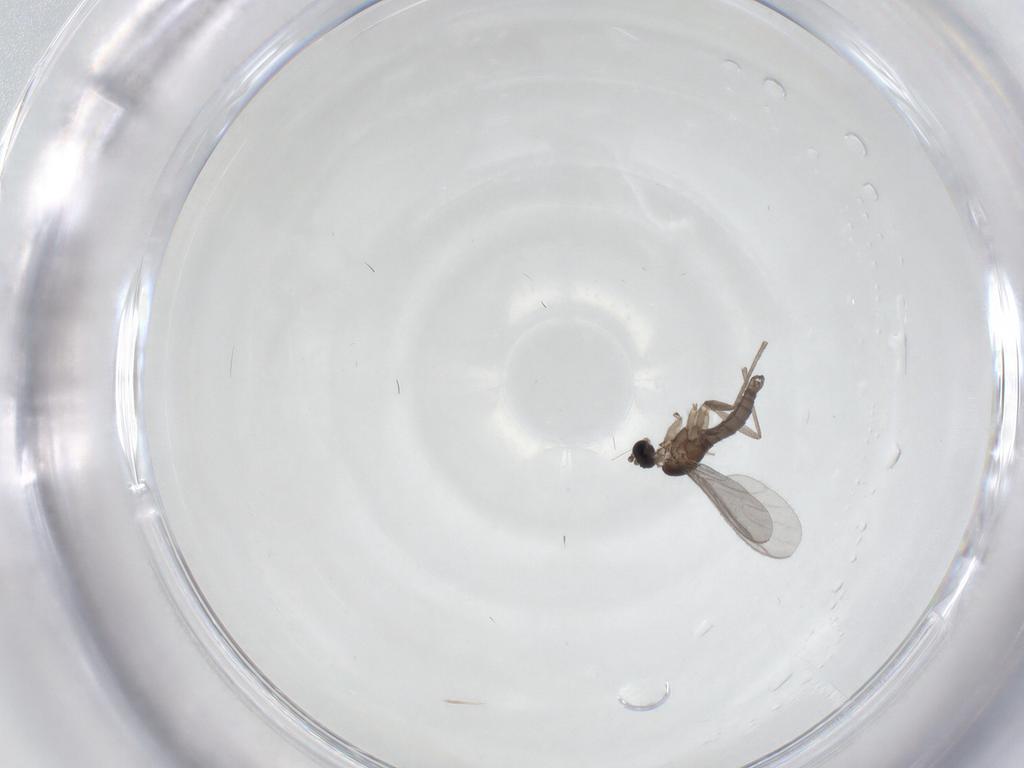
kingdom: Animalia
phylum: Arthropoda
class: Insecta
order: Diptera
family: Sciaridae
